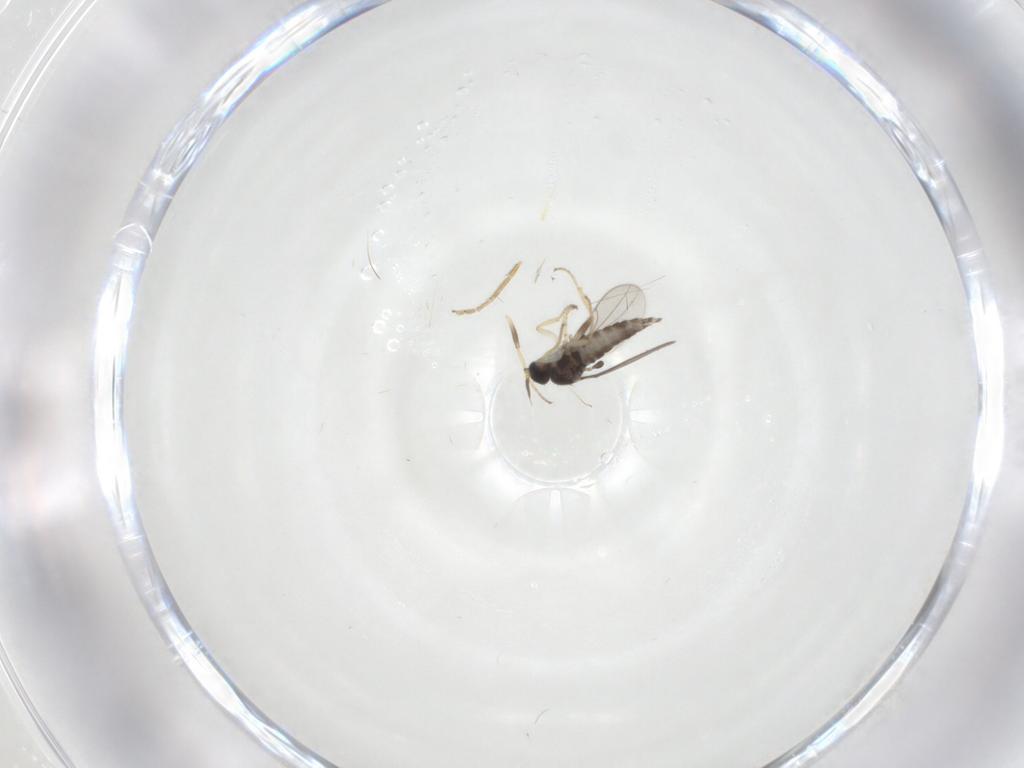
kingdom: Animalia
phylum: Arthropoda
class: Insecta
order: Diptera
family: Hybotidae
